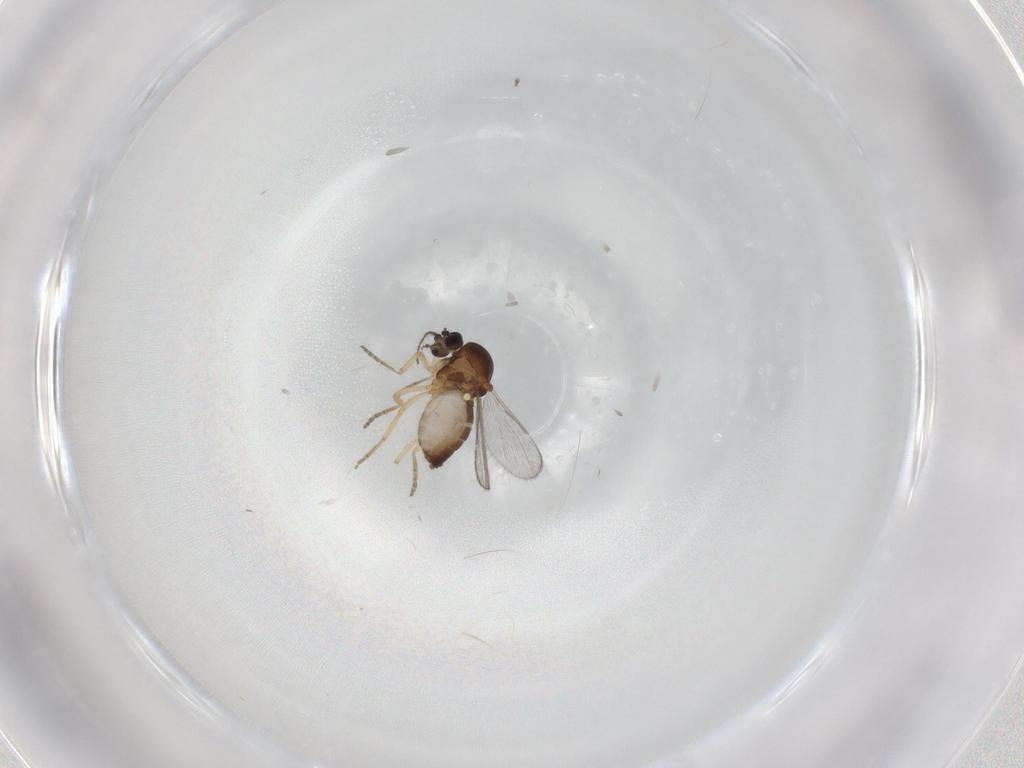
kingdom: Animalia
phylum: Arthropoda
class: Insecta
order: Diptera
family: Ceratopogonidae
